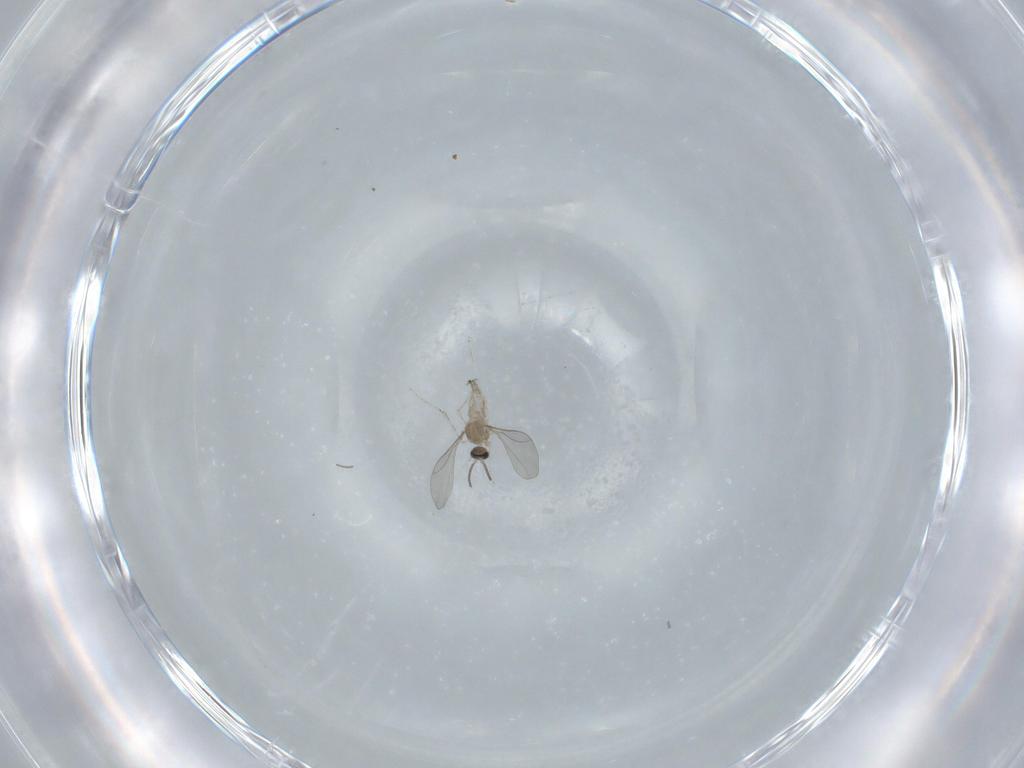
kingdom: Animalia
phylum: Arthropoda
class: Insecta
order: Diptera
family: Cecidomyiidae
